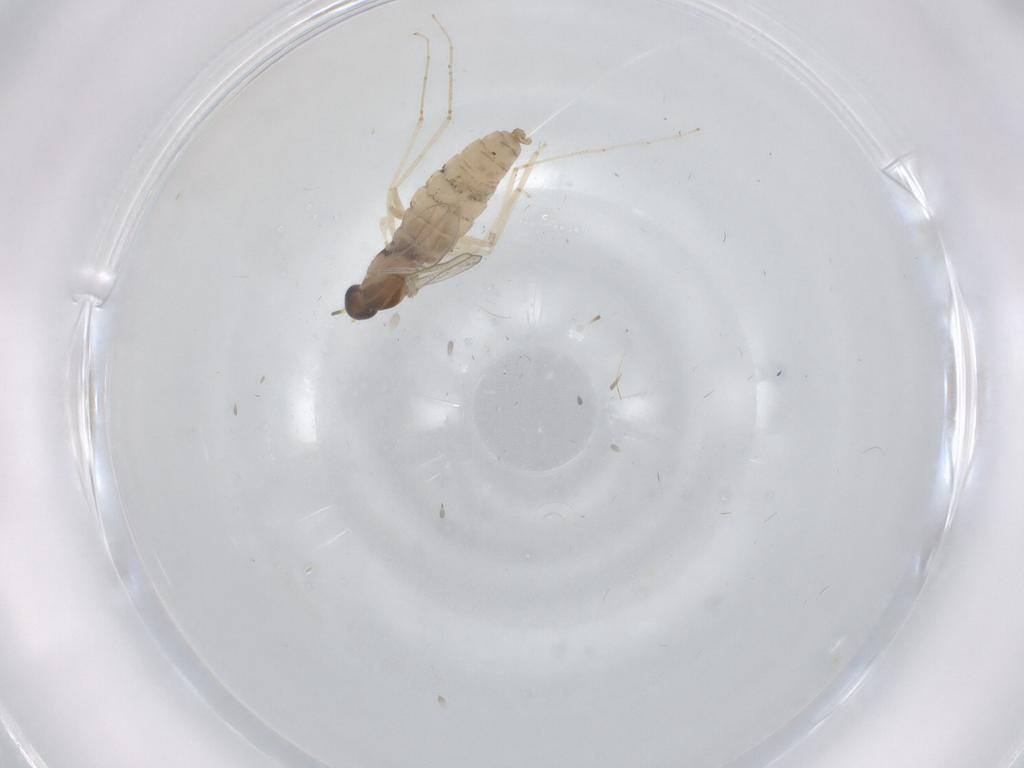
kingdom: Animalia
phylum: Arthropoda
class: Insecta
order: Diptera
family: Cecidomyiidae
